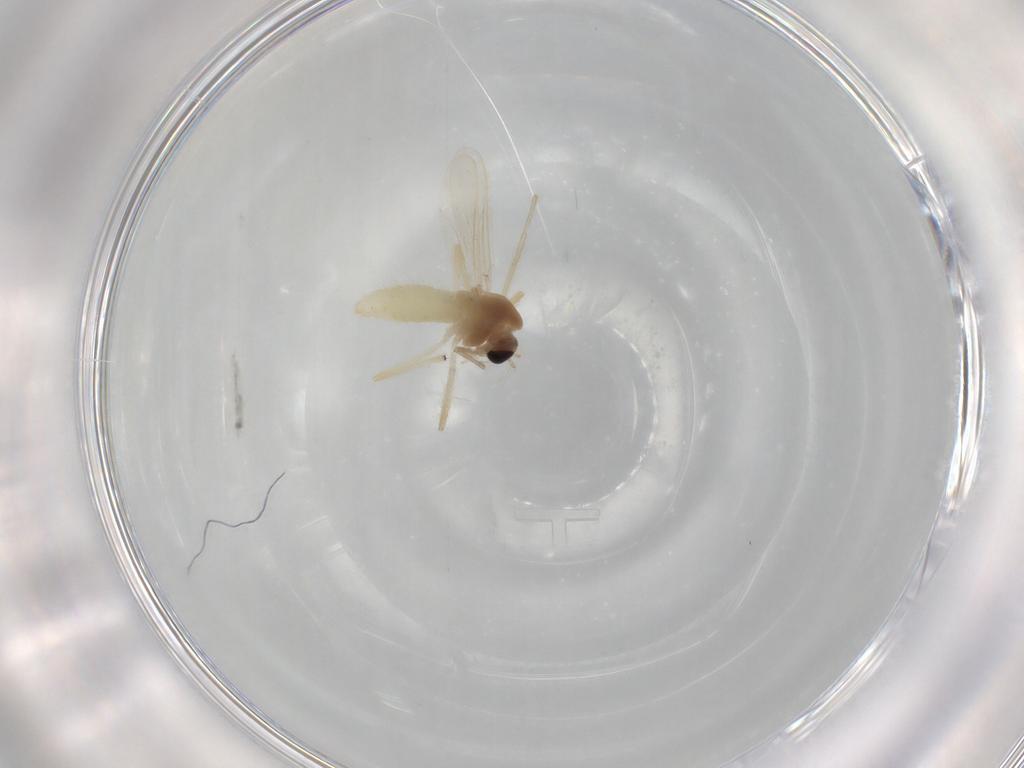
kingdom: Animalia
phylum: Arthropoda
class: Insecta
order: Diptera
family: Chironomidae
